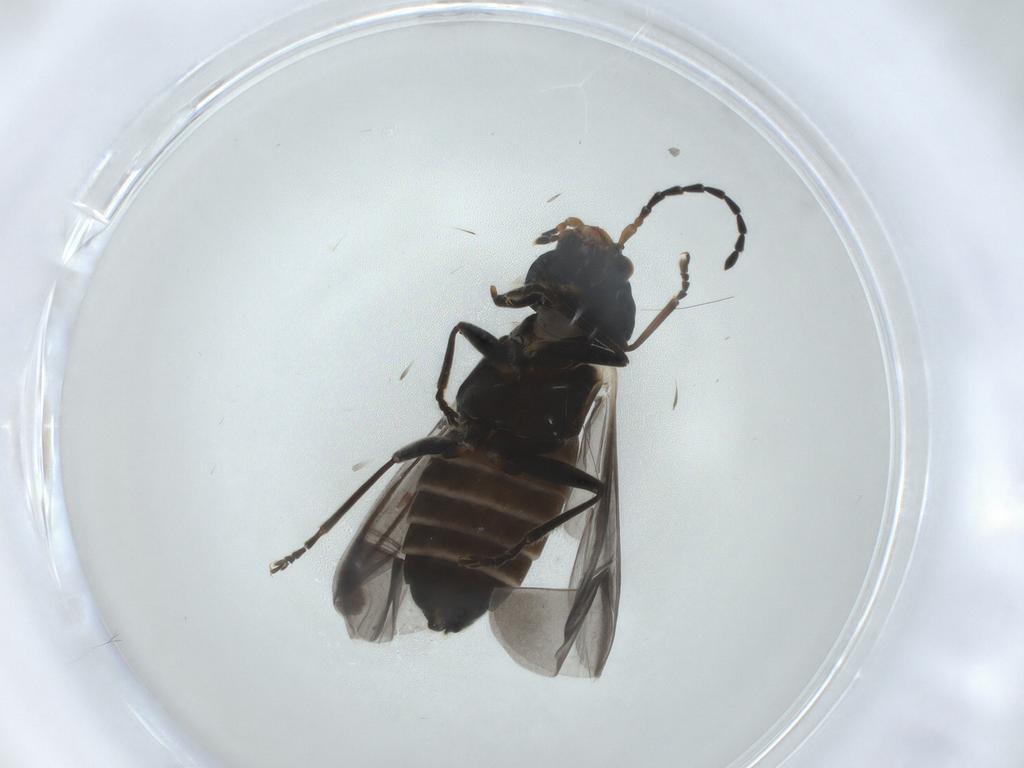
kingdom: Animalia
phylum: Arthropoda
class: Insecta
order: Coleoptera
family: Cantharidae
